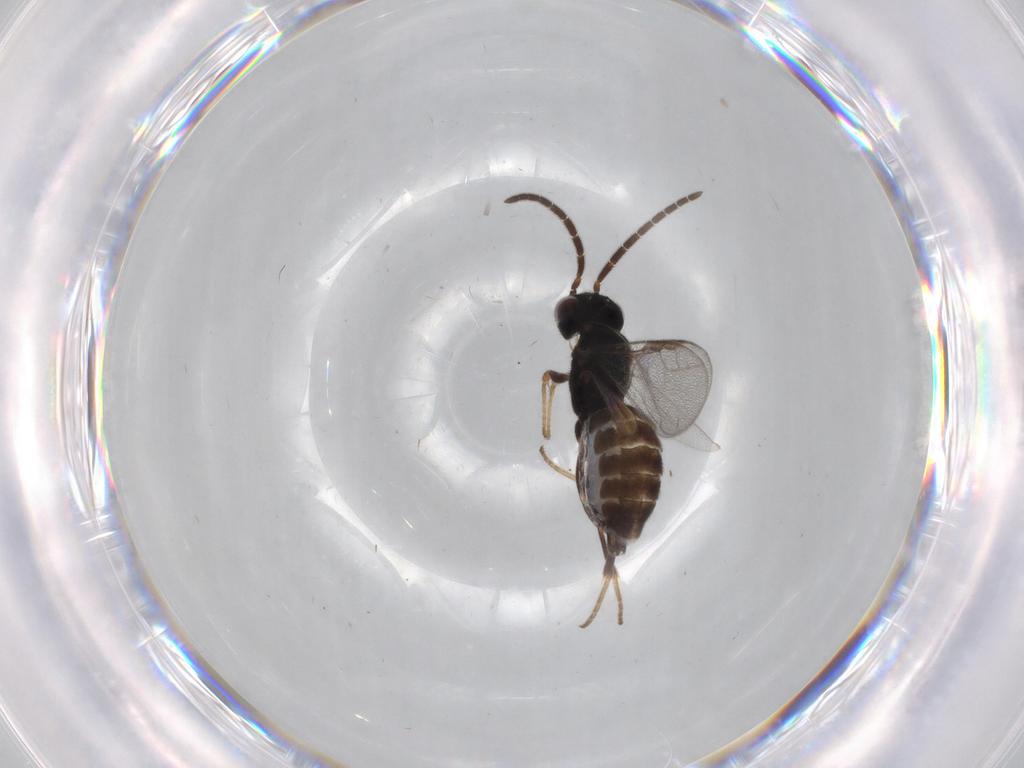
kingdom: Animalia
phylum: Arthropoda
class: Insecta
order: Hymenoptera
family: Dryinidae
